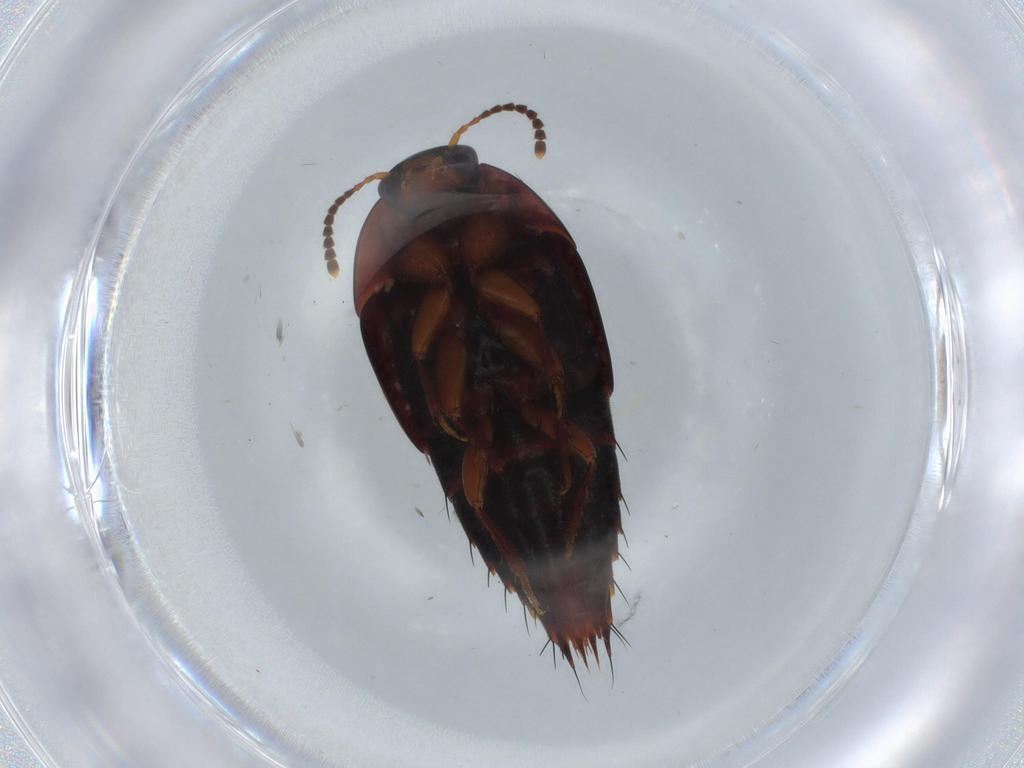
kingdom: Animalia
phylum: Arthropoda
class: Insecta
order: Coleoptera
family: Staphylinidae
